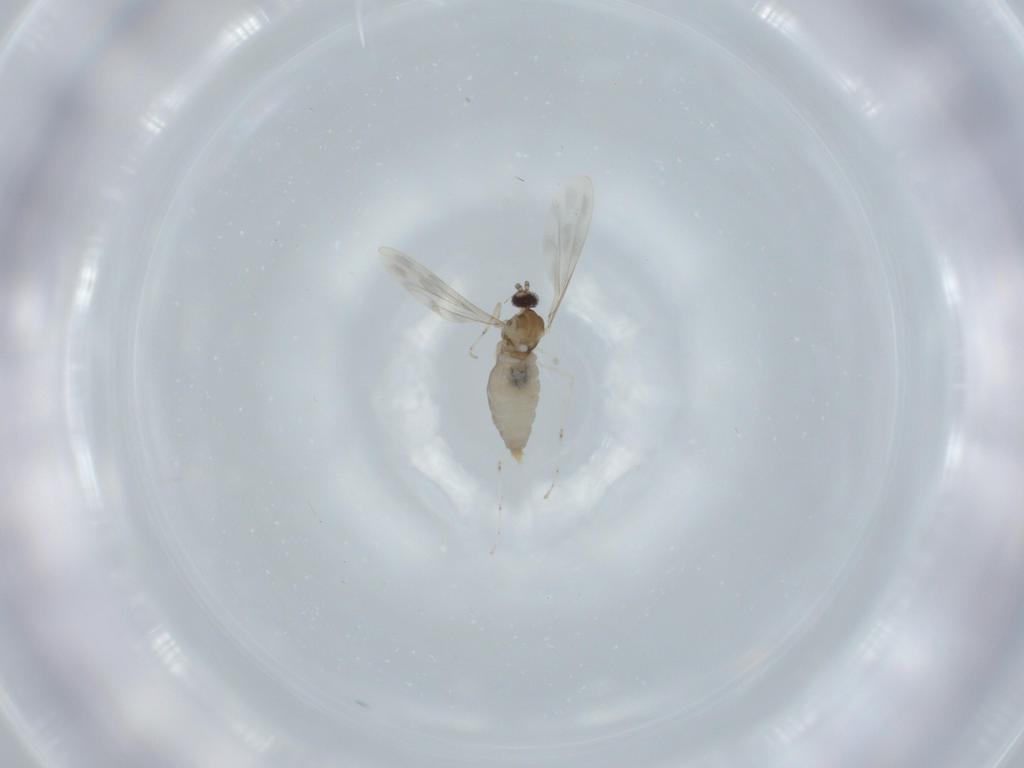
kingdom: Animalia
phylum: Arthropoda
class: Insecta
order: Diptera
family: Cecidomyiidae
